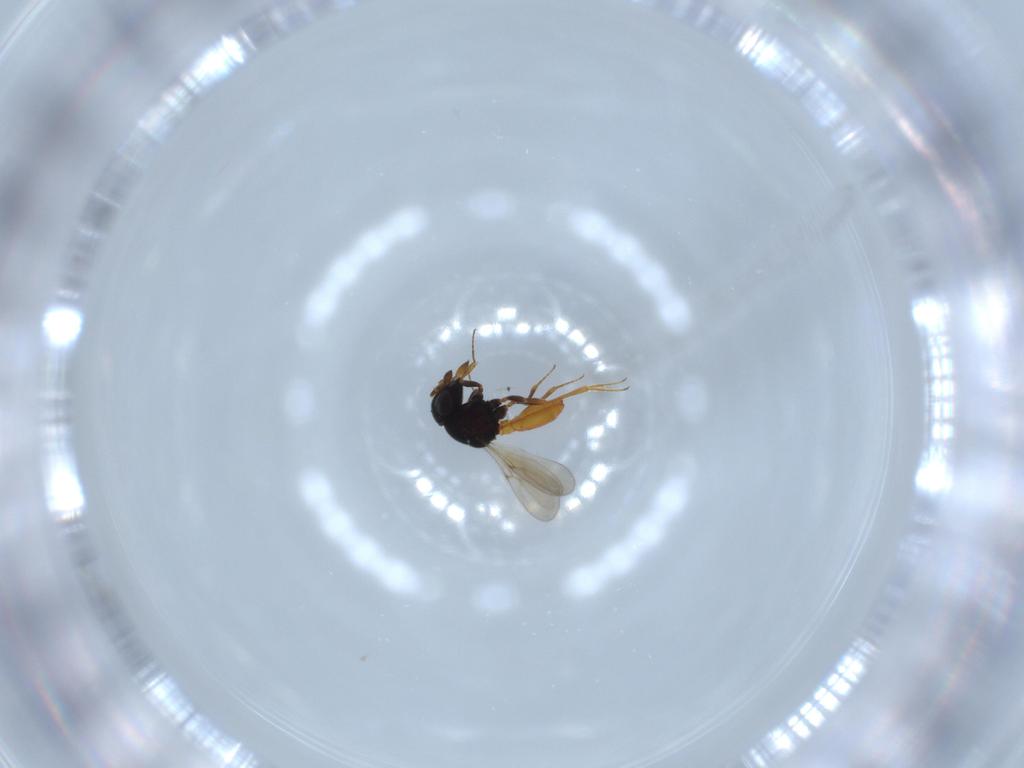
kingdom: Animalia
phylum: Arthropoda
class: Insecta
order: Hymenoptera
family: Scelionidae
